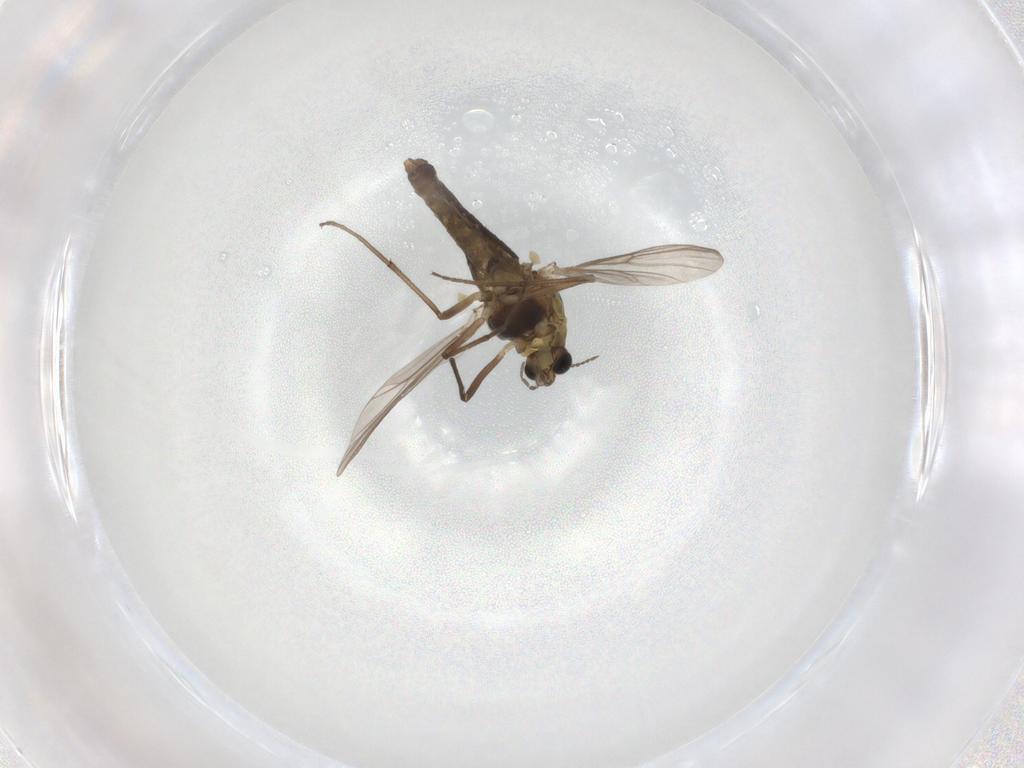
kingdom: Animalia
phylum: Arthropoda
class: Insecta
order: Diptera
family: Chironomidae
